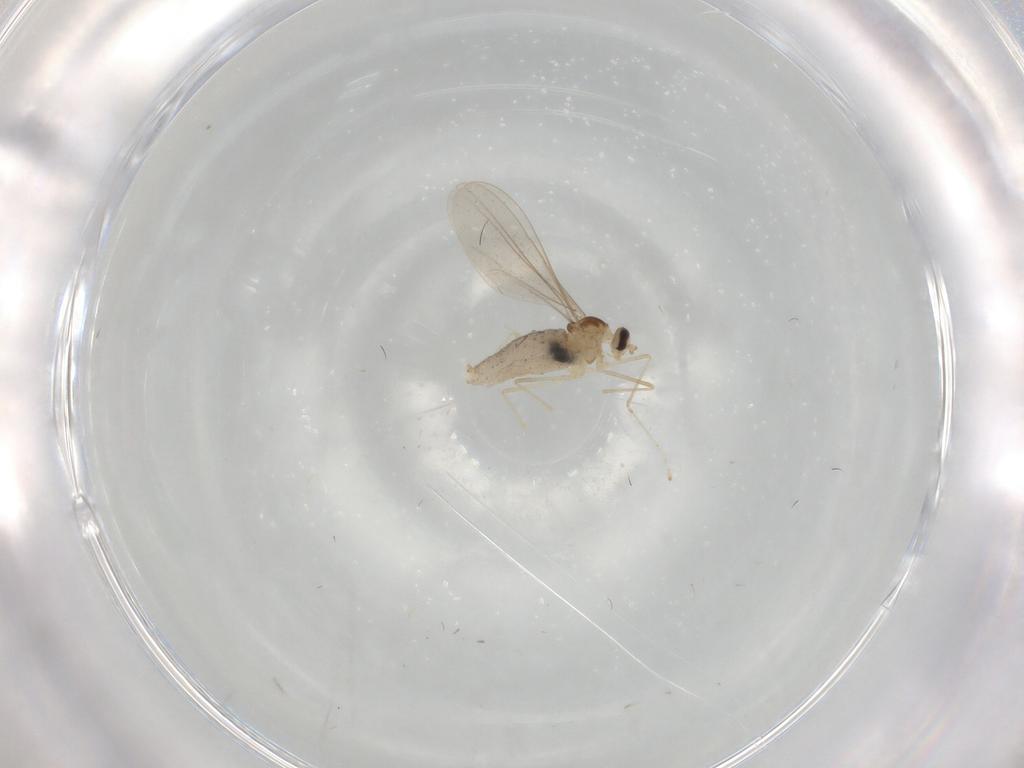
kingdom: Animalia
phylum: Arthropoda
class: Insecta
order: Diptera
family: Cecidomyiidae
